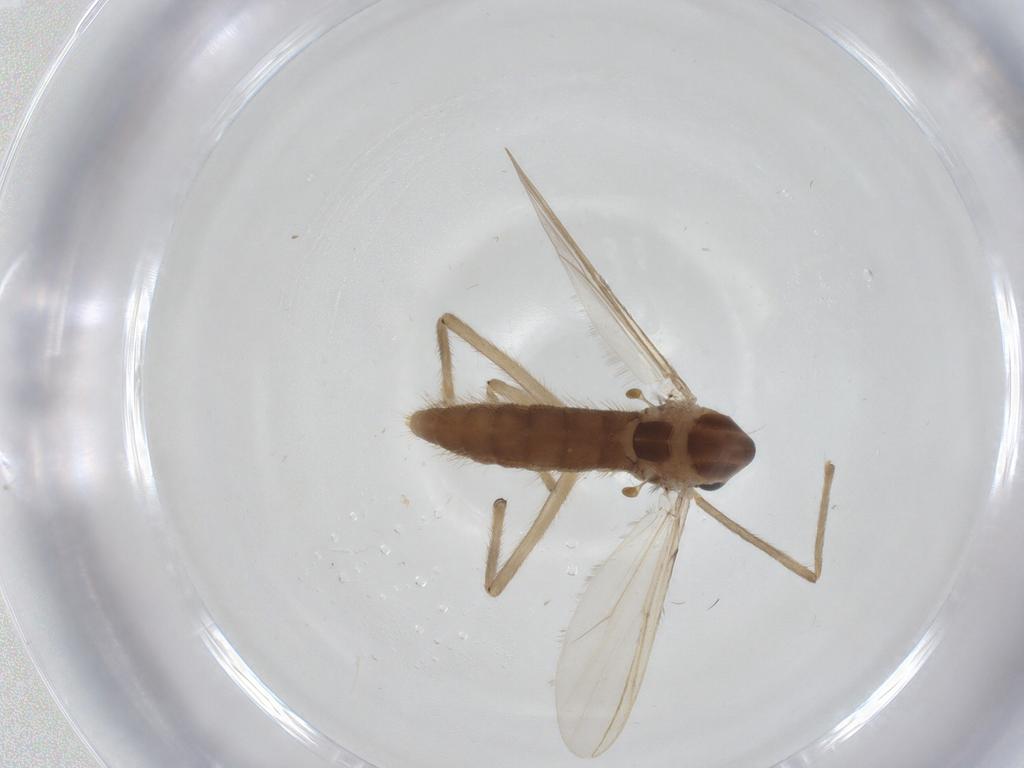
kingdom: Animalia
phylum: Arthropoda
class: Insecta
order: Diptera
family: Chironomidae
